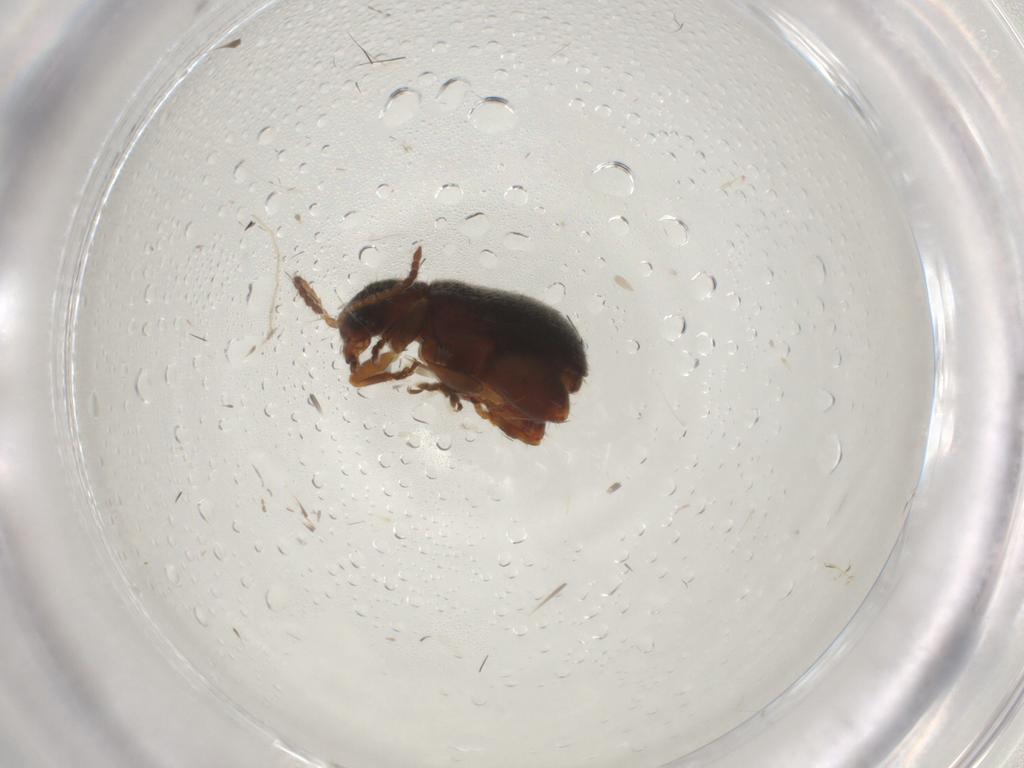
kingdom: Animalia
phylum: Arthropoda
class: Insecta
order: Coleoptera
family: Chrysomelidae
